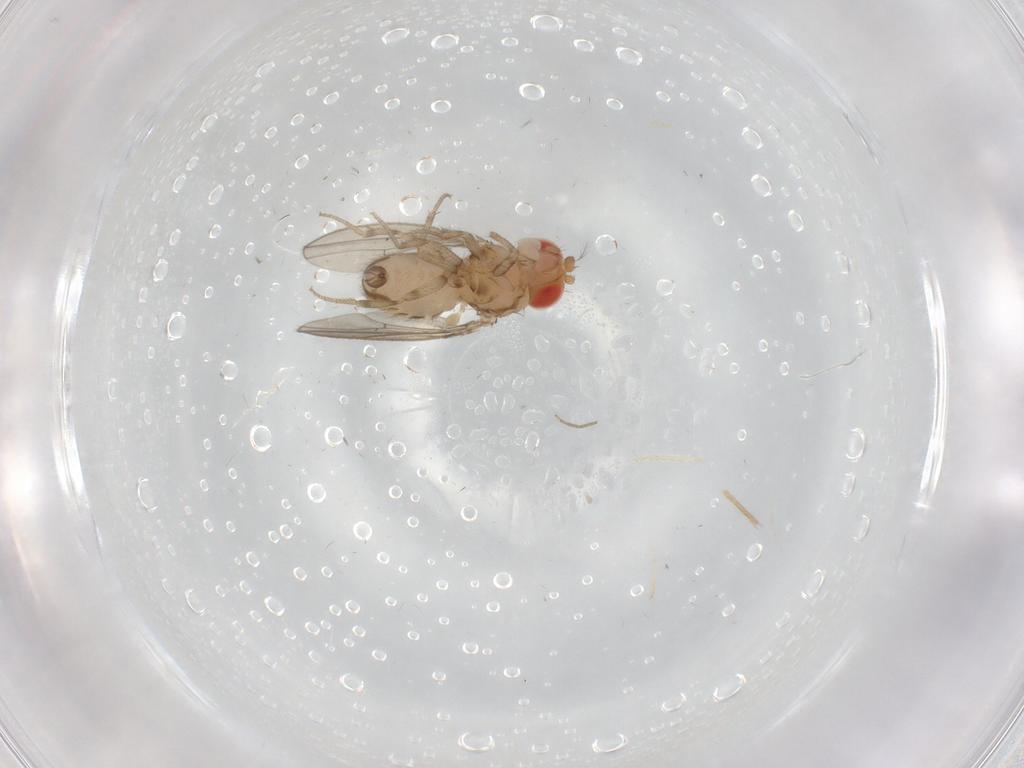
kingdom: Animalia
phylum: Arthropoda
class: Insecta
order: Diptera
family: Drosophilidae
